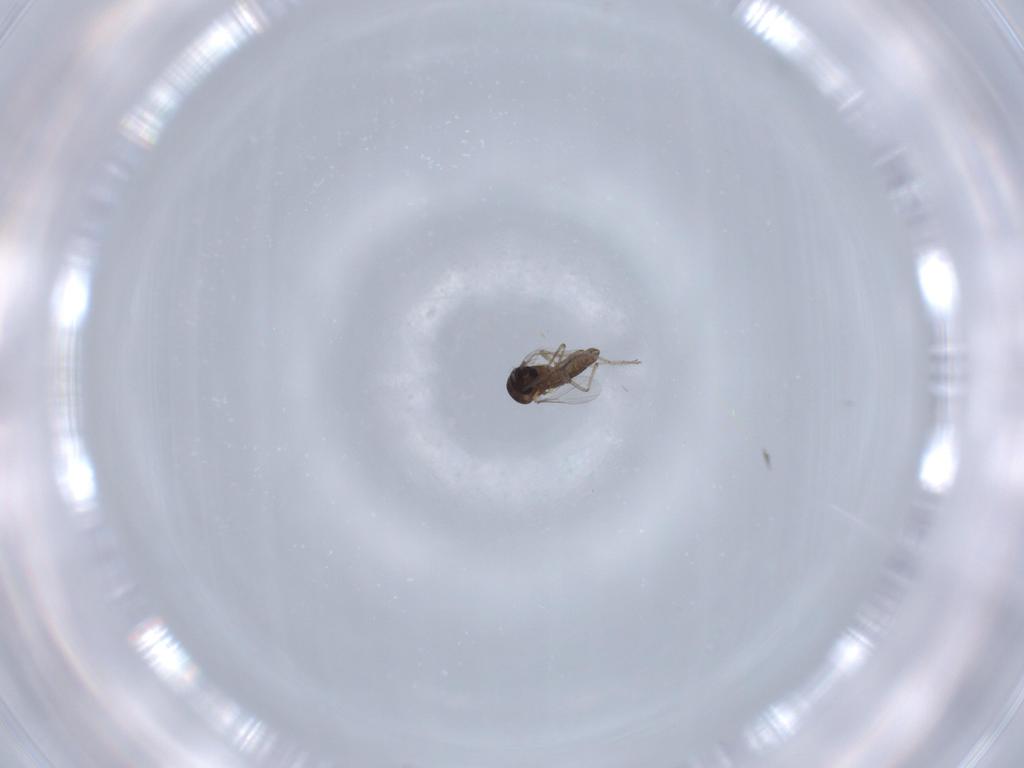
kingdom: Animalia
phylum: Arthropoda
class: Insecta
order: Diptera
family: Cecidomyiidae
